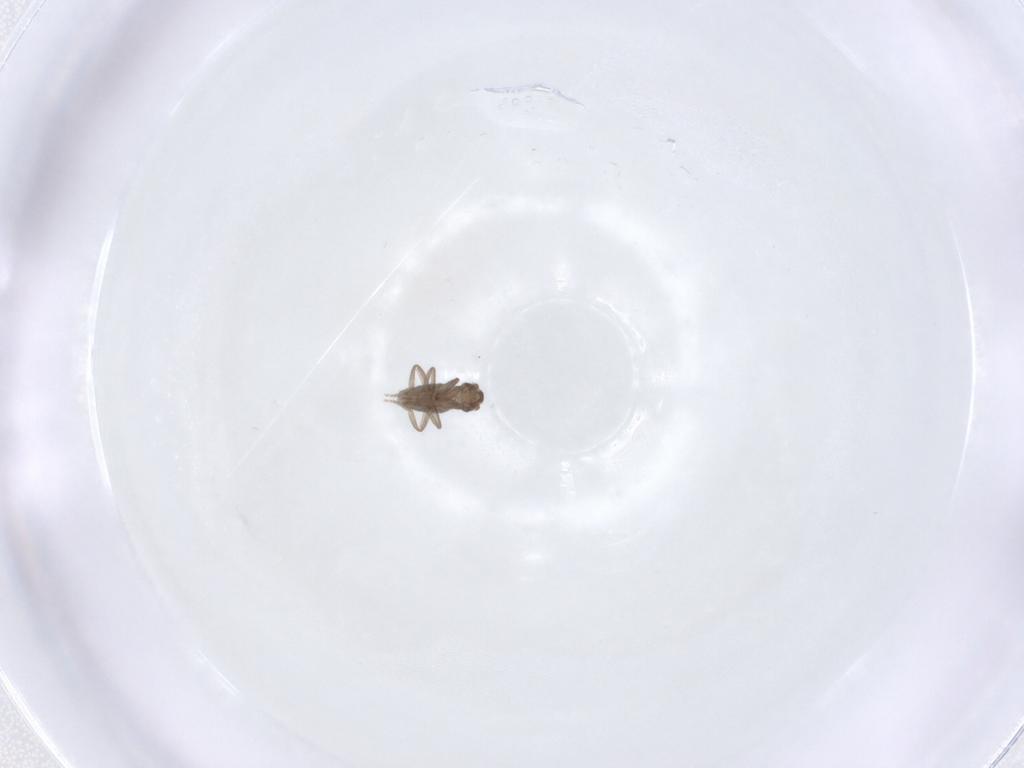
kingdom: Animalia
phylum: Arthropoda
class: Insecta
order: Diptera
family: Phoridae
